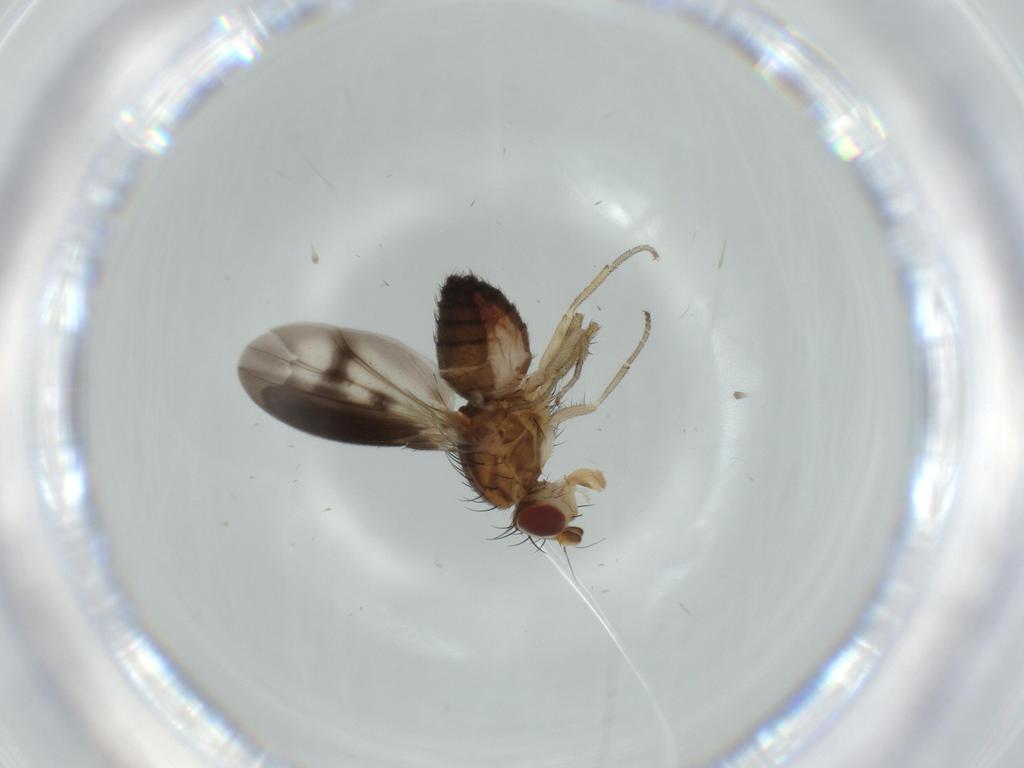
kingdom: Animalia
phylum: Arthropoda
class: Insecta
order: Diptera
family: Heleomyzidae
